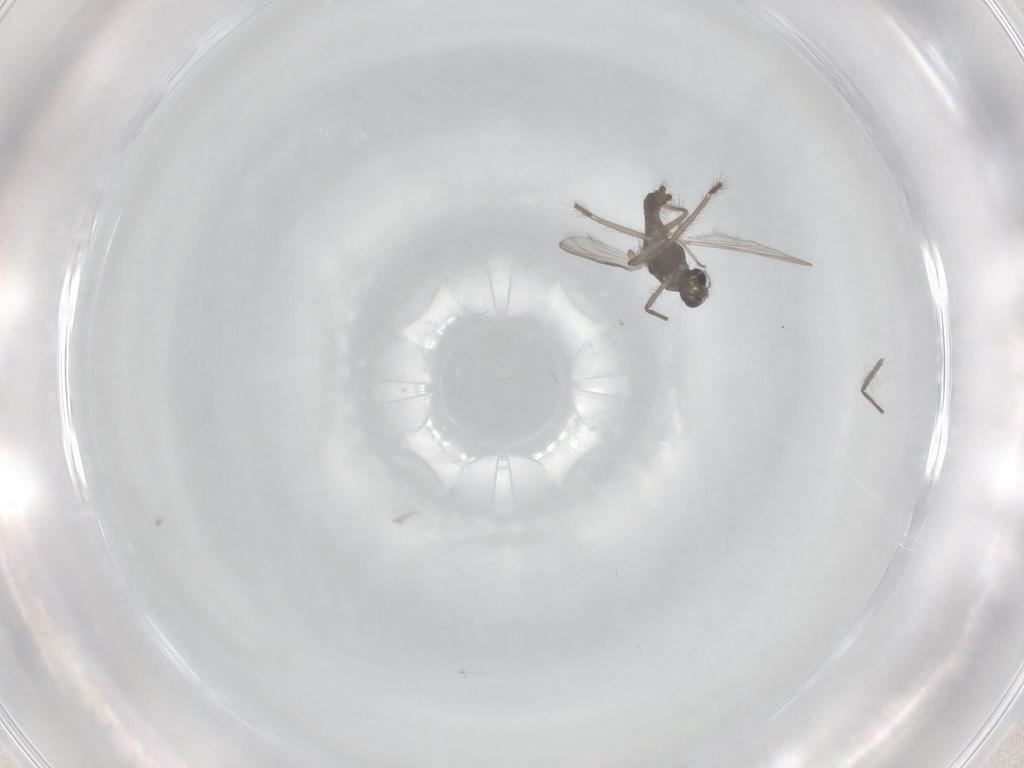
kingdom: Animalia
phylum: Arthropoda
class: Insecta
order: Diptera
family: Chironomidae
